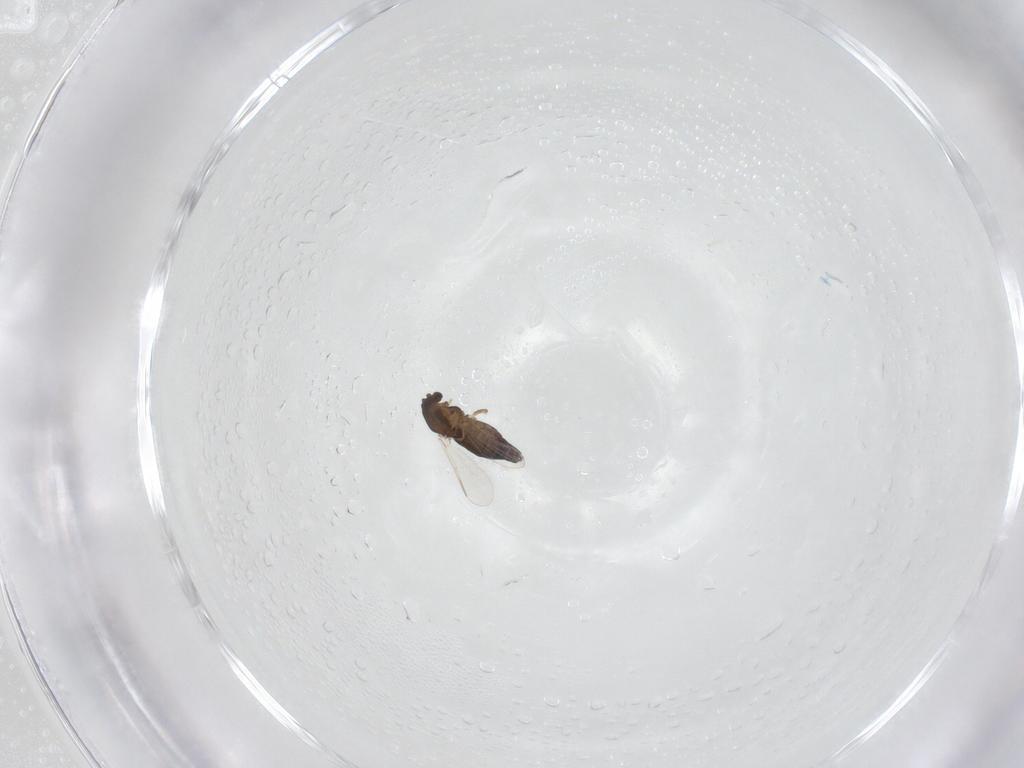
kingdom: Animalia
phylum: Arthropoda
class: Insecta
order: Diptera
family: Chironomidae
